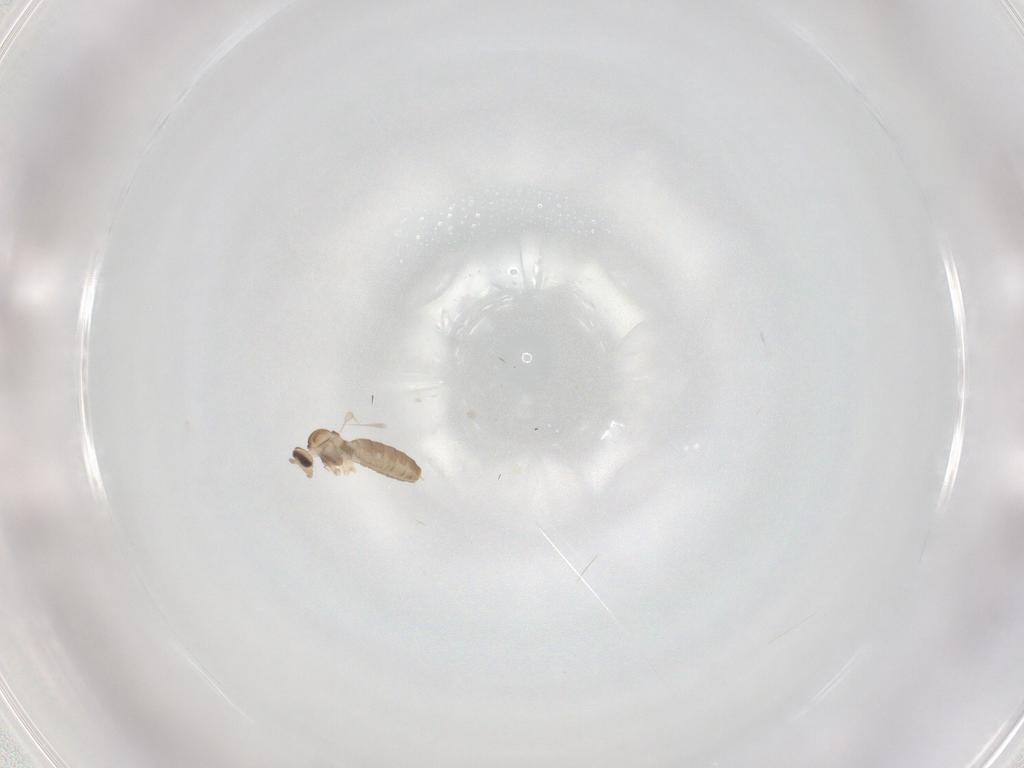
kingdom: Animalia
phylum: Arthropoda
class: Insecta
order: Diptera
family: Cecidomyiidae
